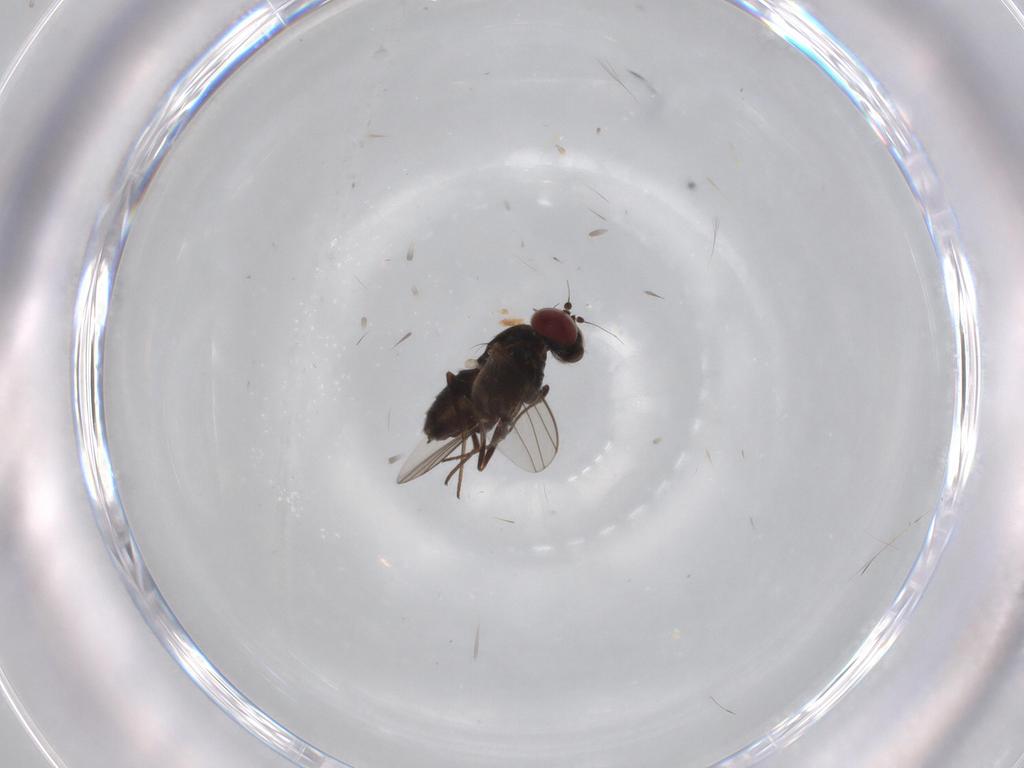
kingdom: Animalia
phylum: Arthropoda
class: Insecta
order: Diptera
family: Dolichopodidae
